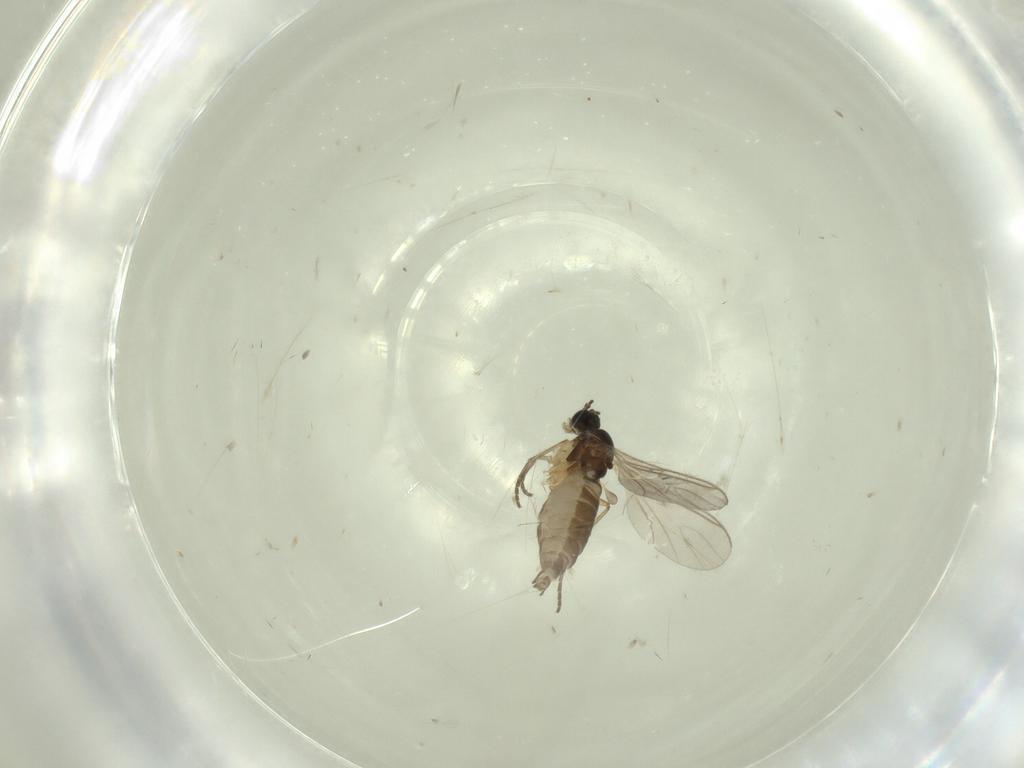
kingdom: Animalia
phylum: Arthropoda
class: Insecta
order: Diptera
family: Sciaridae
